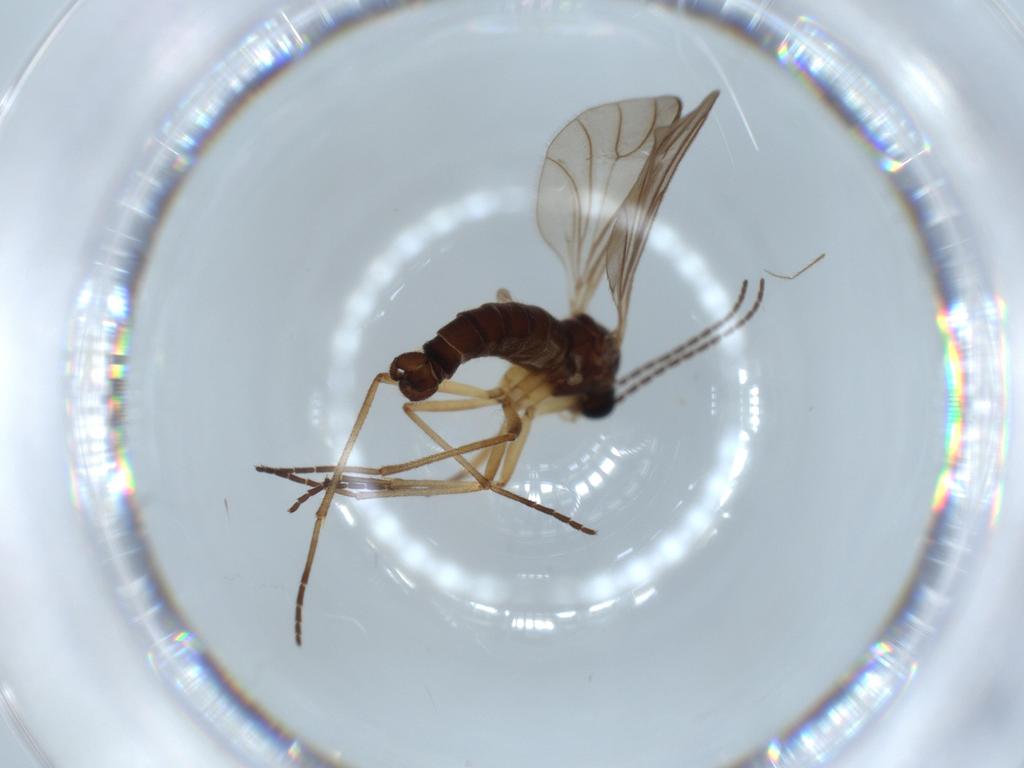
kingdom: Animalia
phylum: Arthropoda
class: Insecta
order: Diptera
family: Sciaridae
